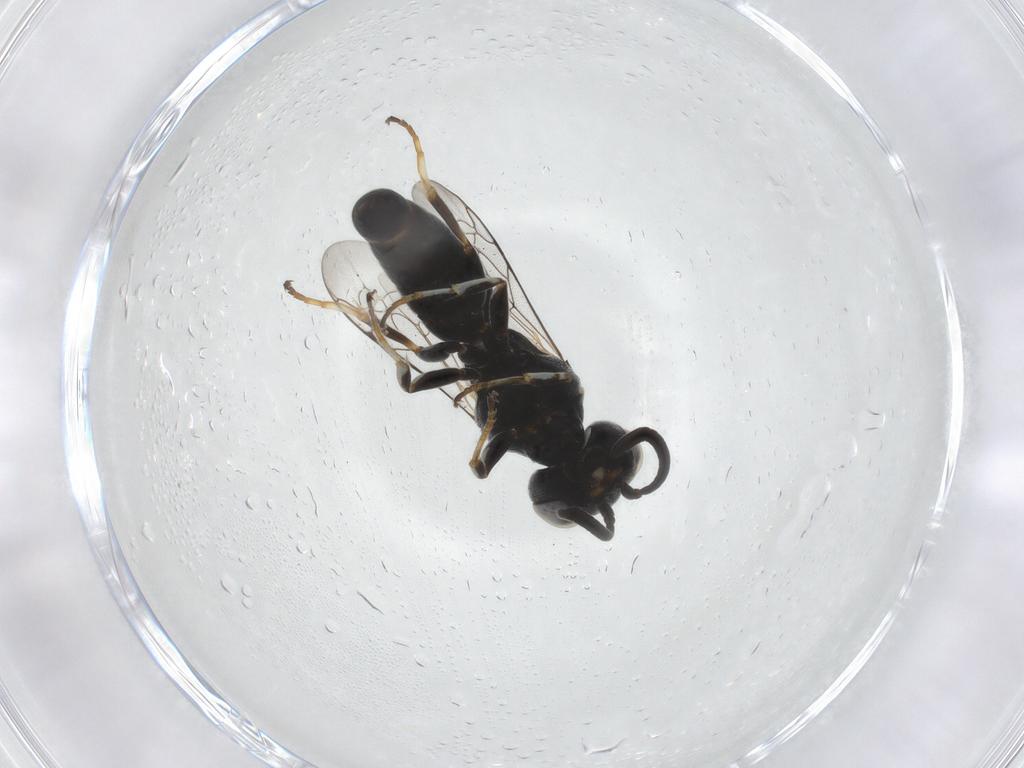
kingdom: Animalia
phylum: Arthropoda
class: Insecta
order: Hymenoptera
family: Crabronidae
